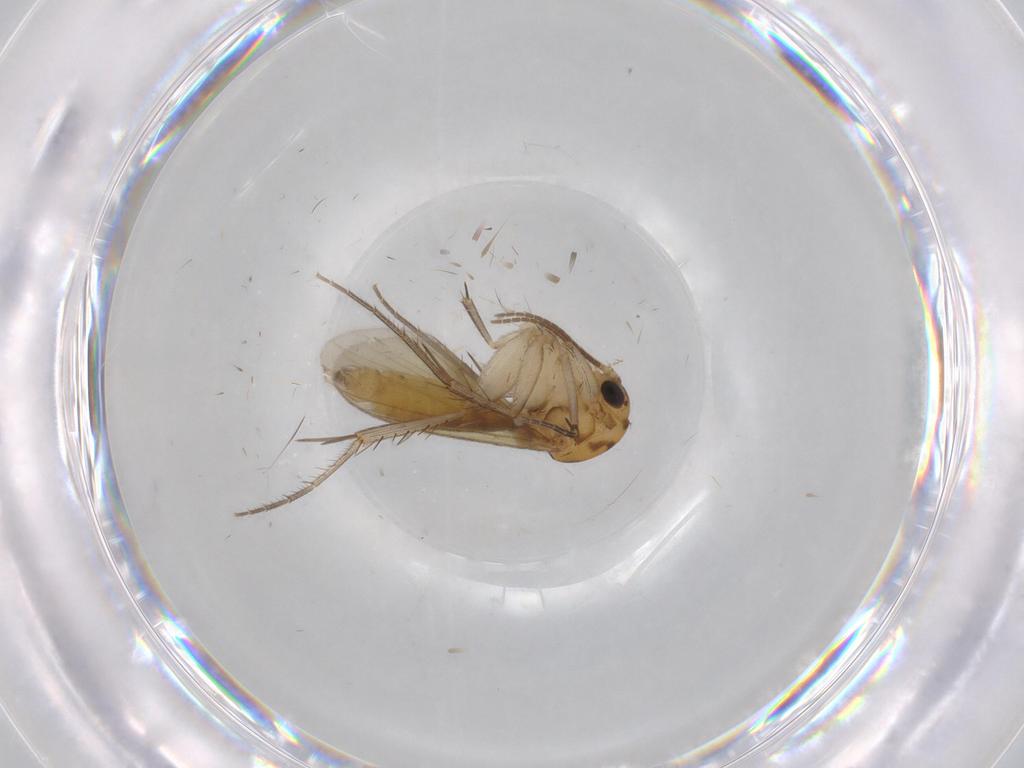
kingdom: Animalia
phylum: Arthropoda
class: Insecta
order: Diptera
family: Mycetophilidae
